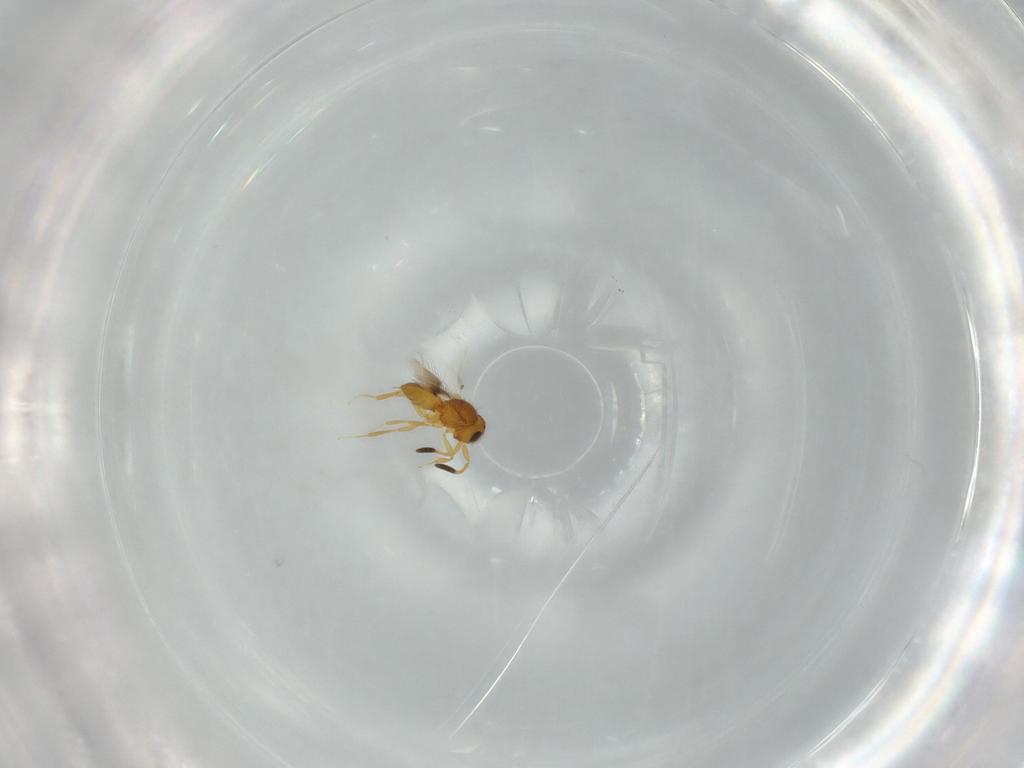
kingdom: Animalia
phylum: Arthropoda
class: Insecta
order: Hymenoptera
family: Scelionidae
